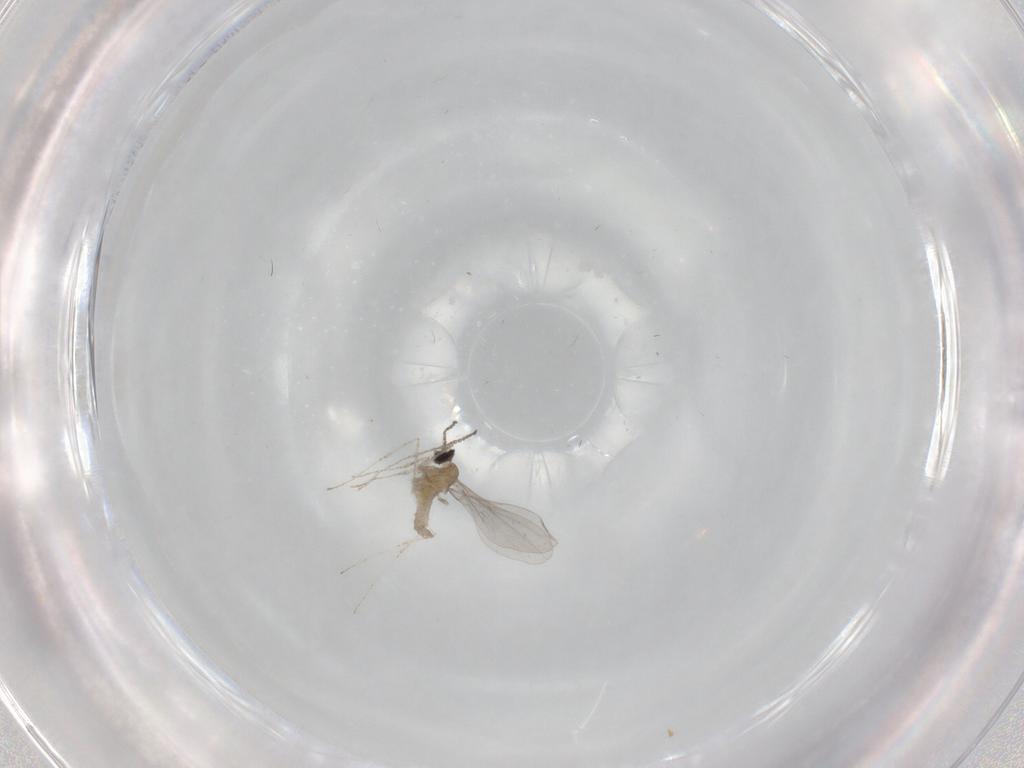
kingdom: Animalia
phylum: Arthropoda
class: Insecta
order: Diptera
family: Cecidomyiidae
